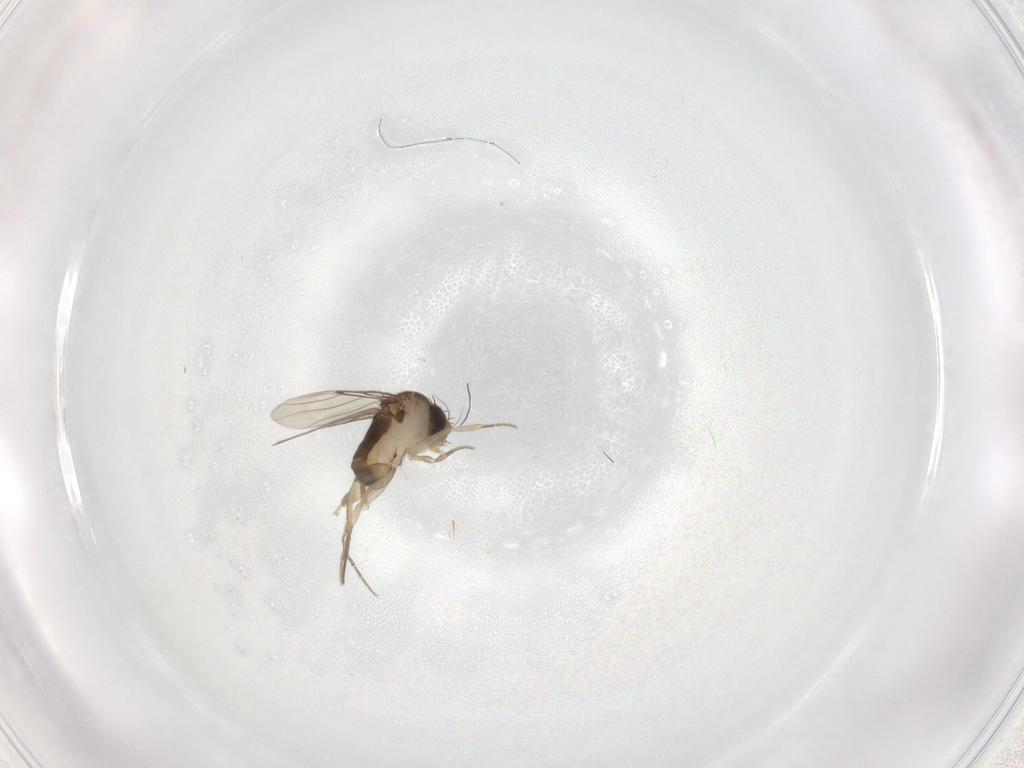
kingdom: Animalia
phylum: Arthropoda
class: Insecta
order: Diptera
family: Phoridae
